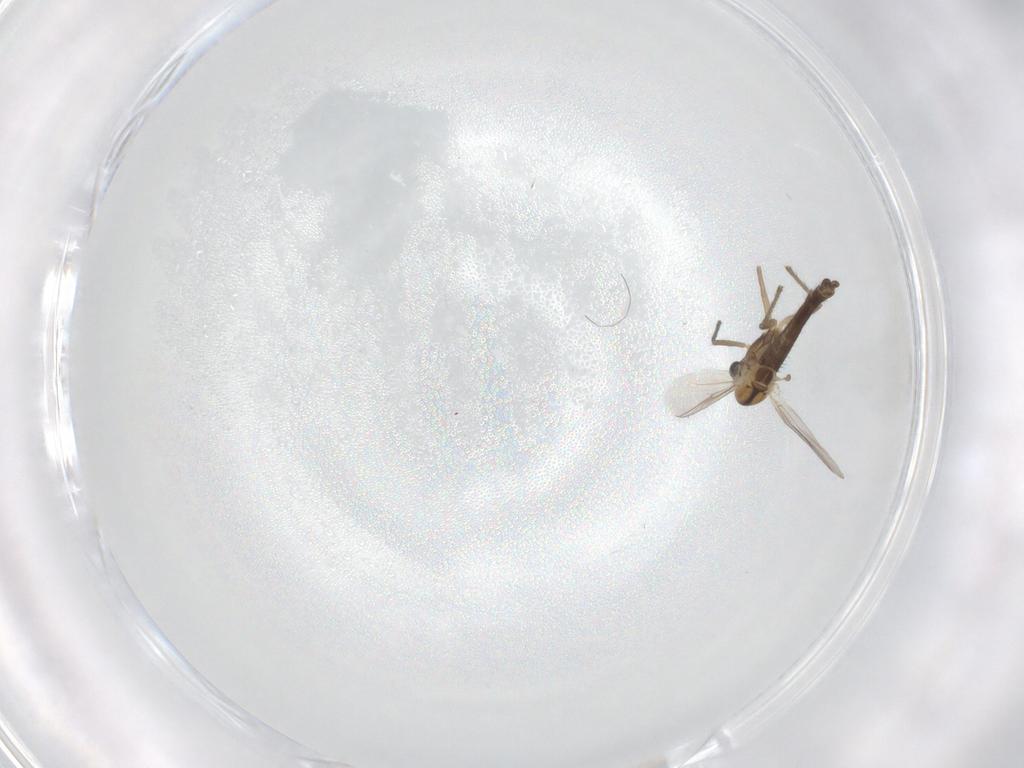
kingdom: Animalia
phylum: Arthropoda
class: Insecta
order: Diptera
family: Chironomidae
